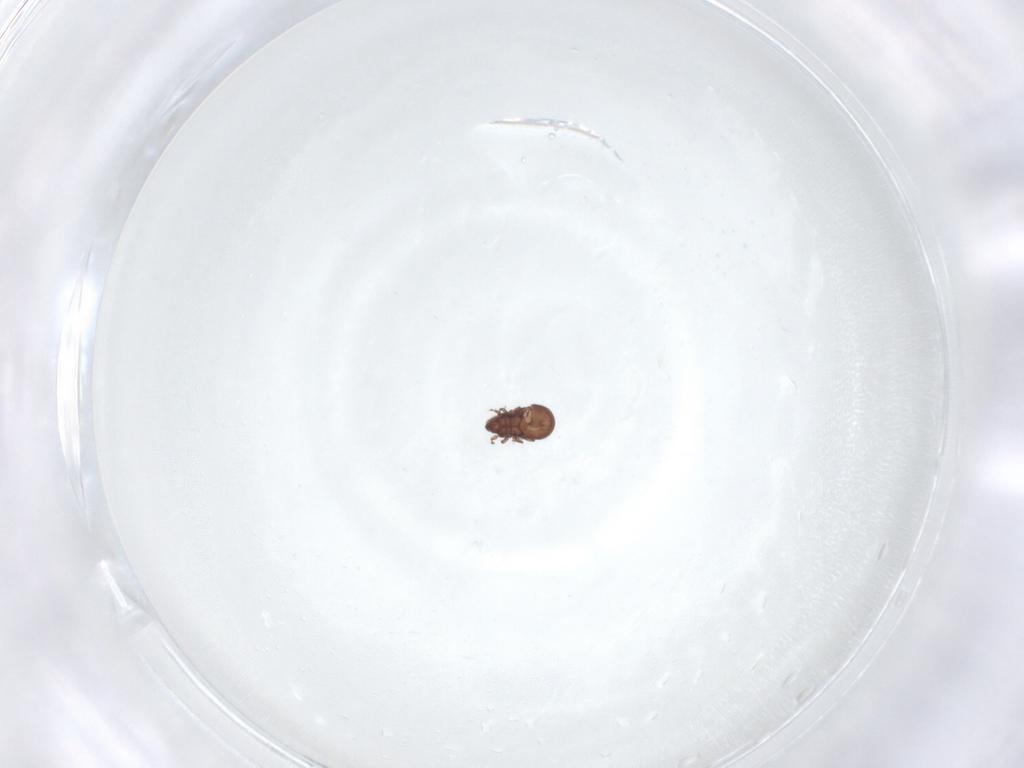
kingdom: Animalia
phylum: Arthropoda
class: Arachnida
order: Sarcoptiformes
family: Carabodidae
